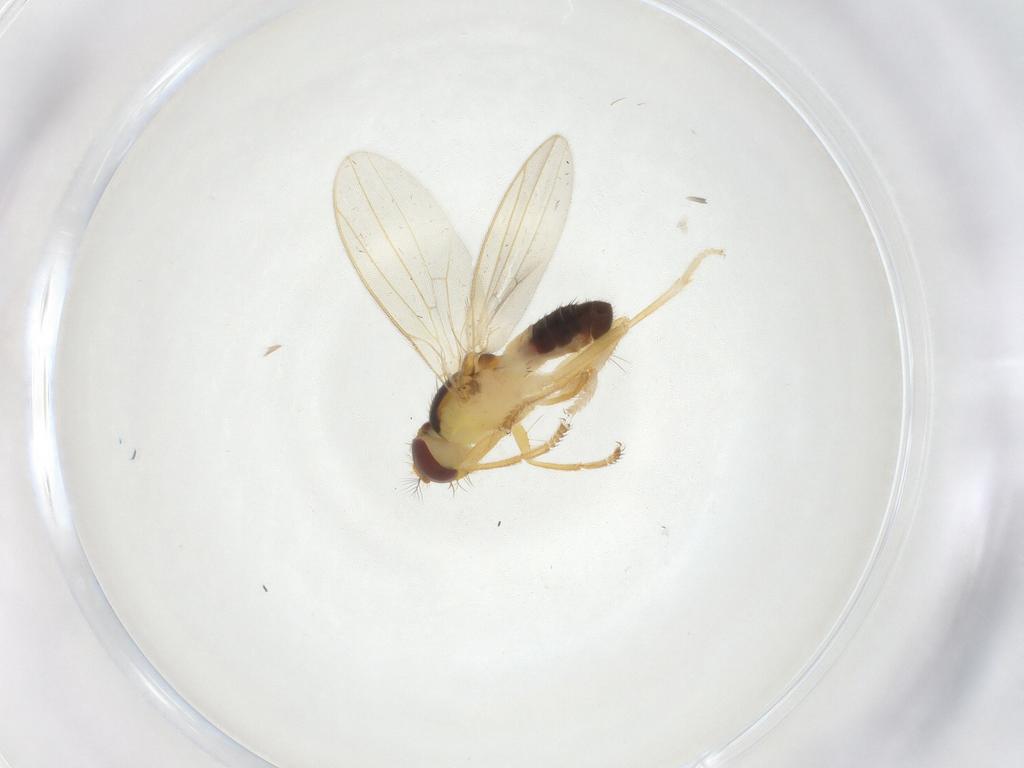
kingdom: Animalia
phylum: Arthropoda
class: Insecta
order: Diptera
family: Periscelididae
